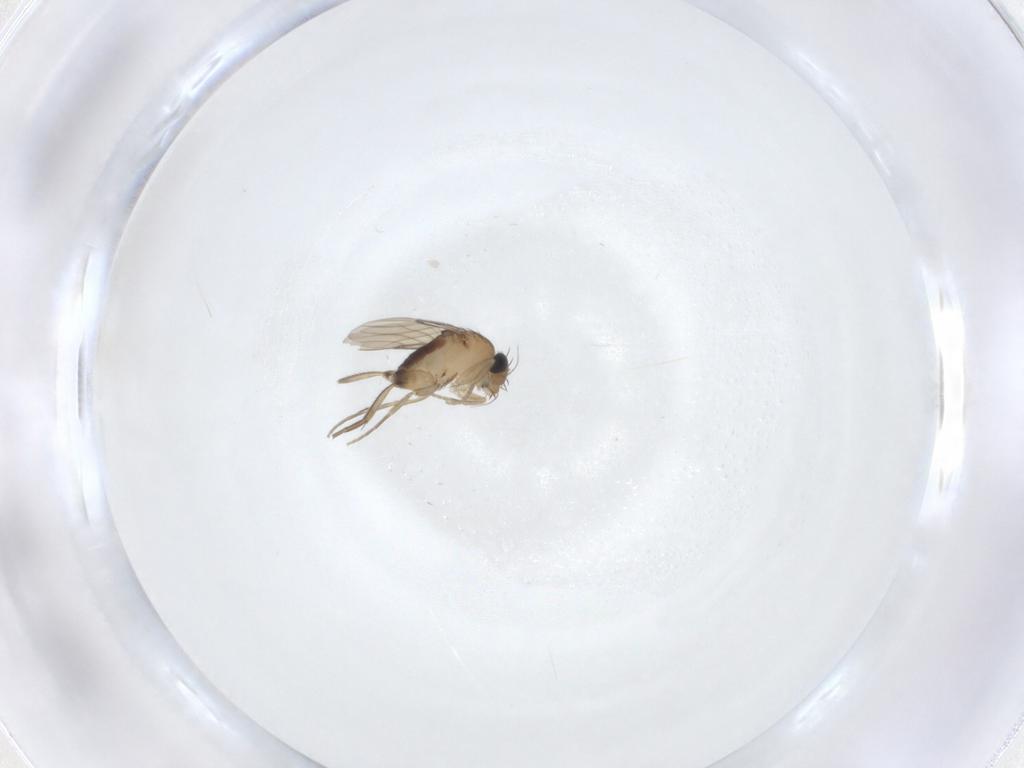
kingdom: Animalia
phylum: Arthropoda
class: Insecta
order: Diptera
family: Phoridae
